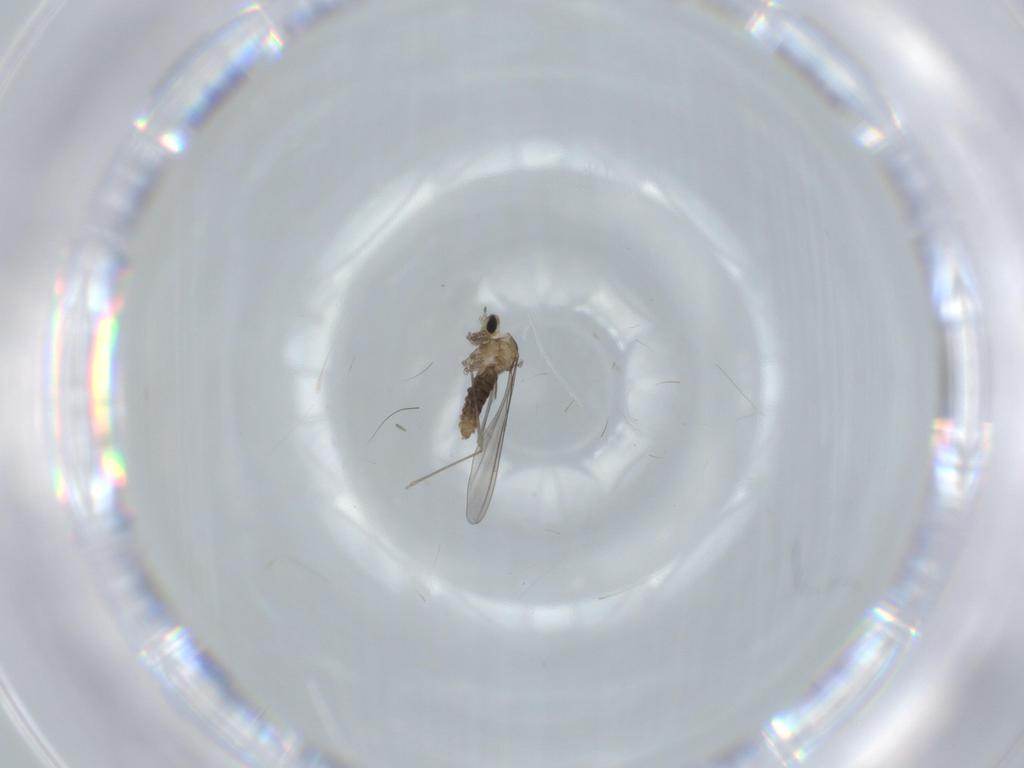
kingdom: Animalia
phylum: Arthropoda
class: Insecta
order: Diptera
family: Cecidomyiidae
